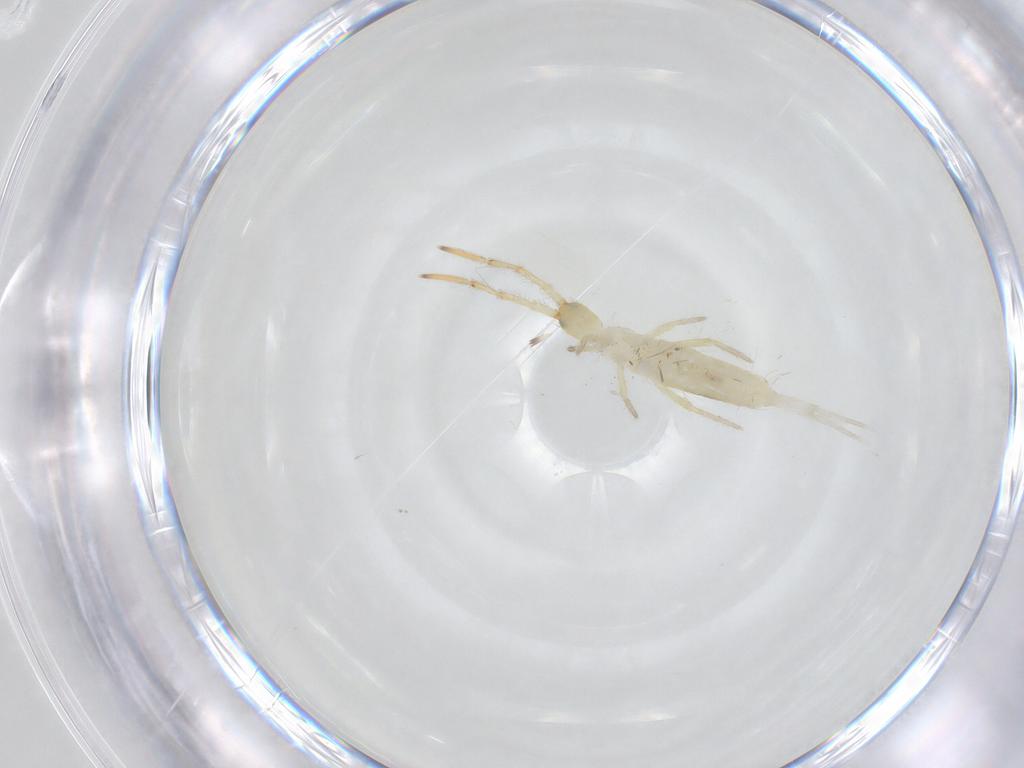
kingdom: Animalia
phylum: Arthropoda
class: Collembola
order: Entomobryomorpha
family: Entomobryidae
